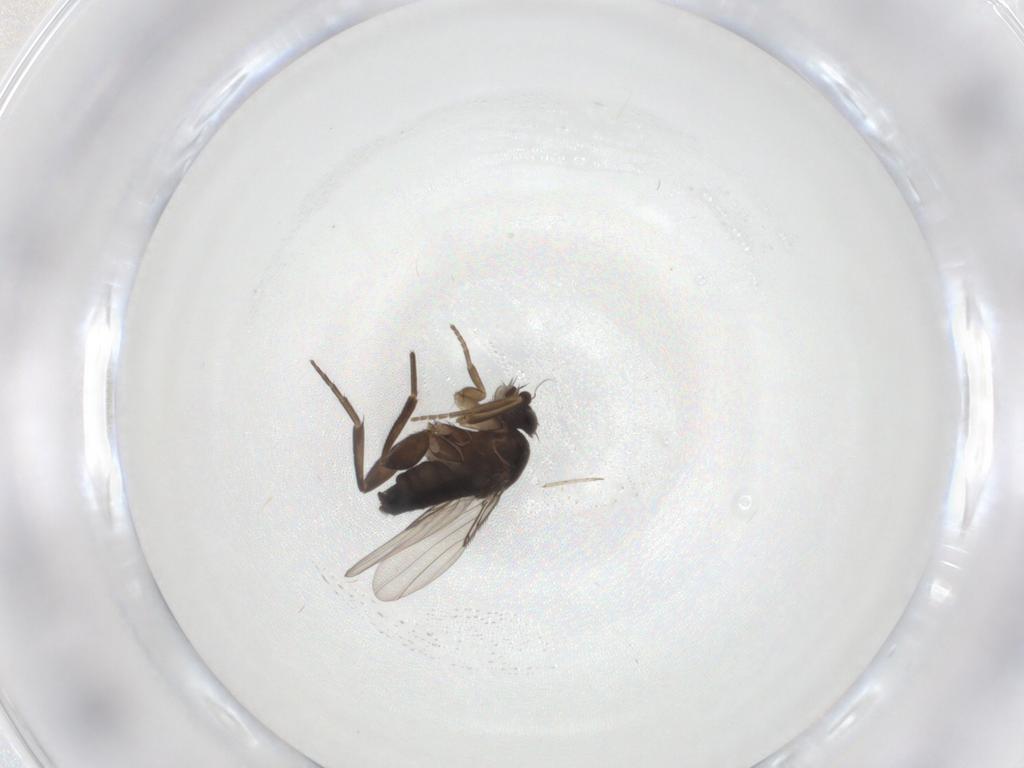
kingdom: Animalia
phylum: Arthropoda
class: Insecta
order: Diptera
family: Phoridae
